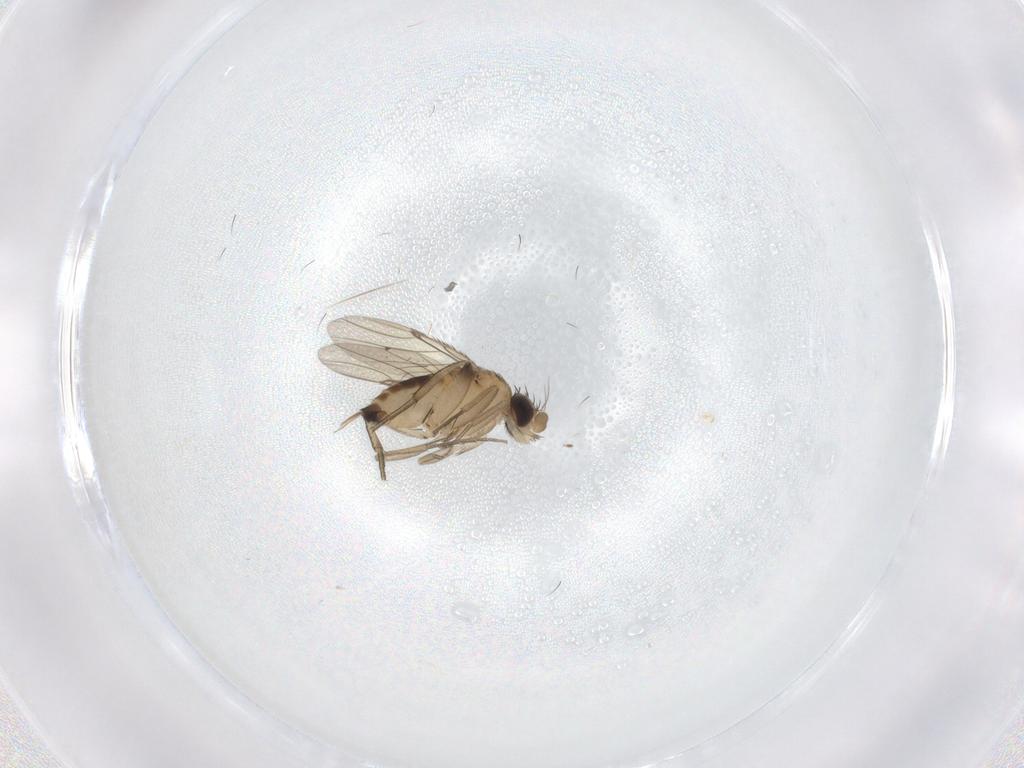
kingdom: Animalia
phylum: Arthropoda
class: Insecta
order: Diptera
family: Phoridae
